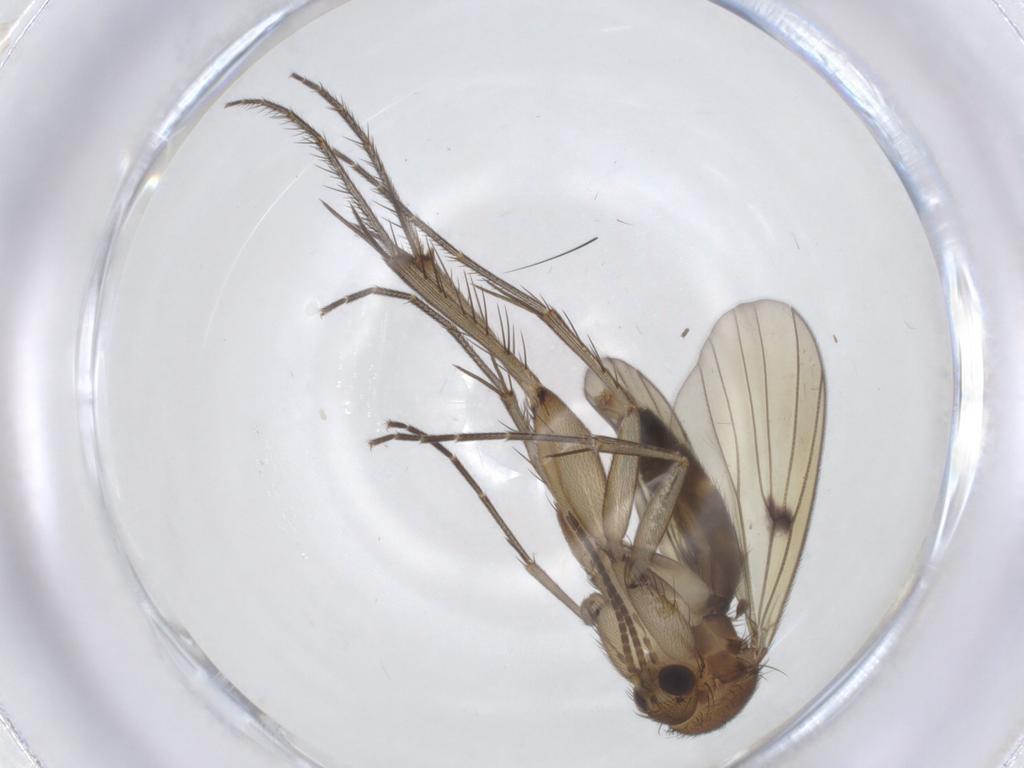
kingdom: Animalia
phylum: Arthropoda
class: Insecta
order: Diptera
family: Mycetophilidae
